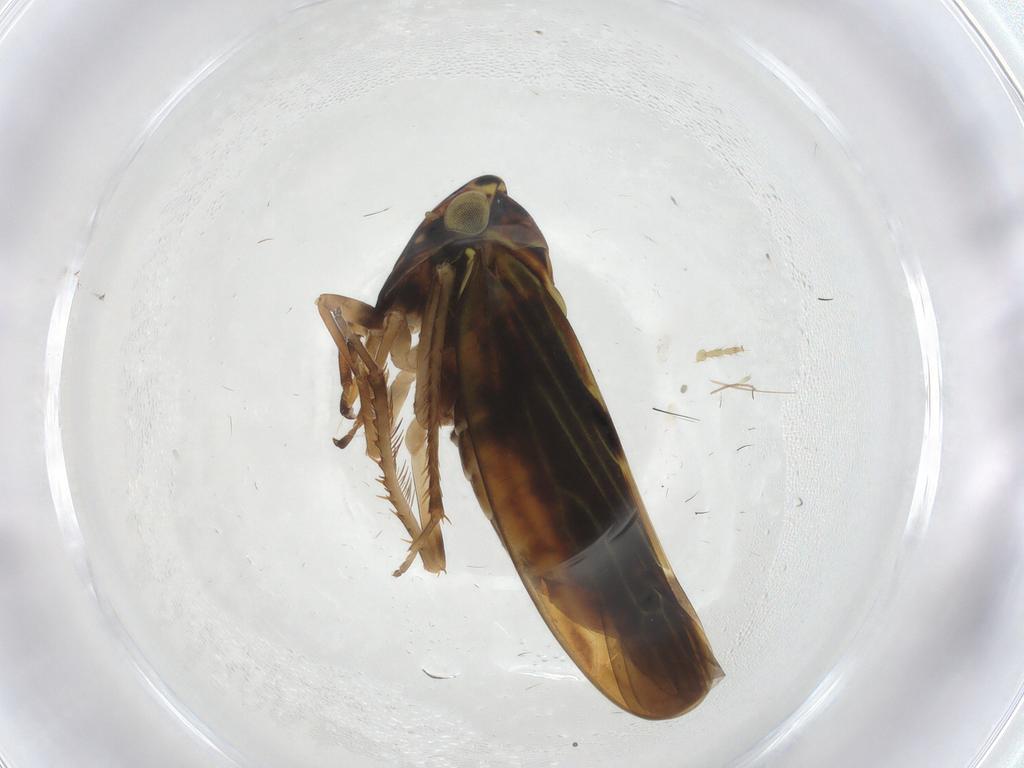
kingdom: Animalia
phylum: Arthropoda
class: Insecta
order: Hemiptera
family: Cicadellidae
